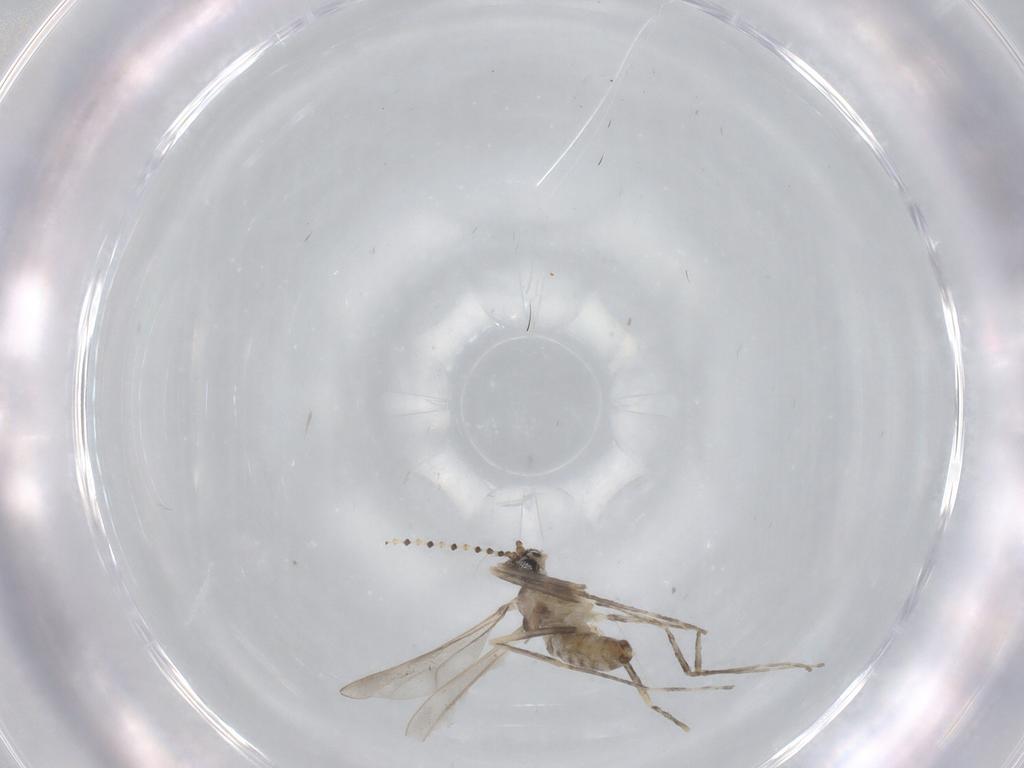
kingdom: Animalia
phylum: Arthropoda
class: Insecta
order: Diptera
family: Cecidomyiidae
